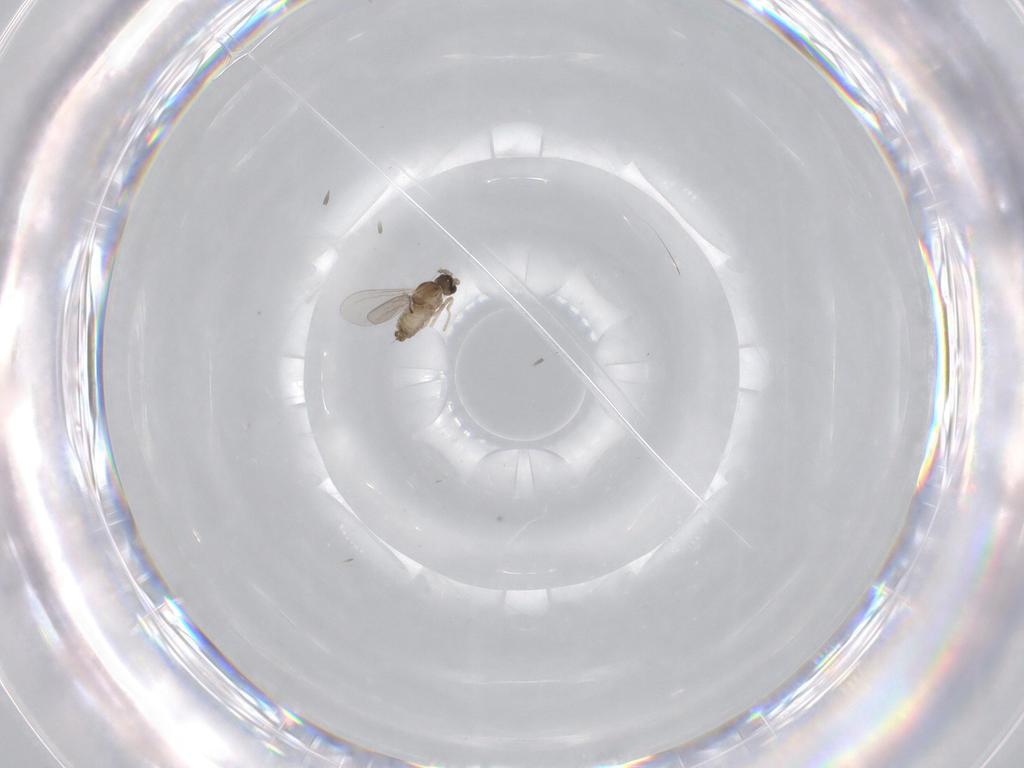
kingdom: Animalia
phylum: Arthropoda
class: Insecta
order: Diptera
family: Cecidomyiidae
